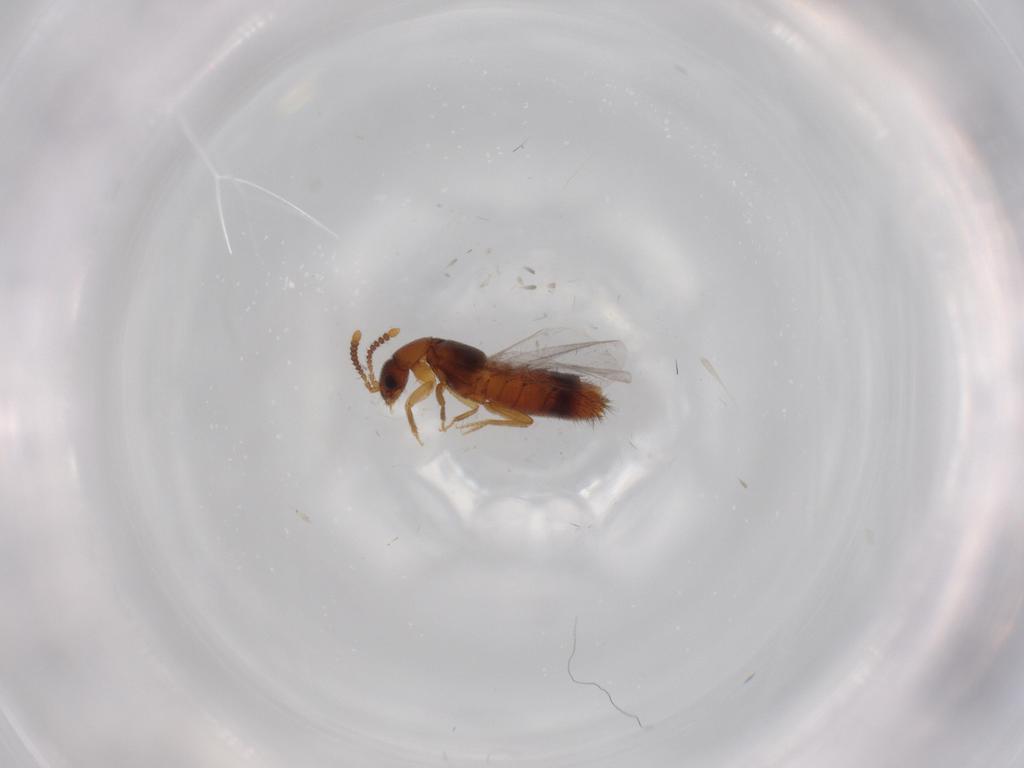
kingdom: Animalia
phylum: Arthropoda
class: Insecta
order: Coleoptera
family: Staphylinidae
